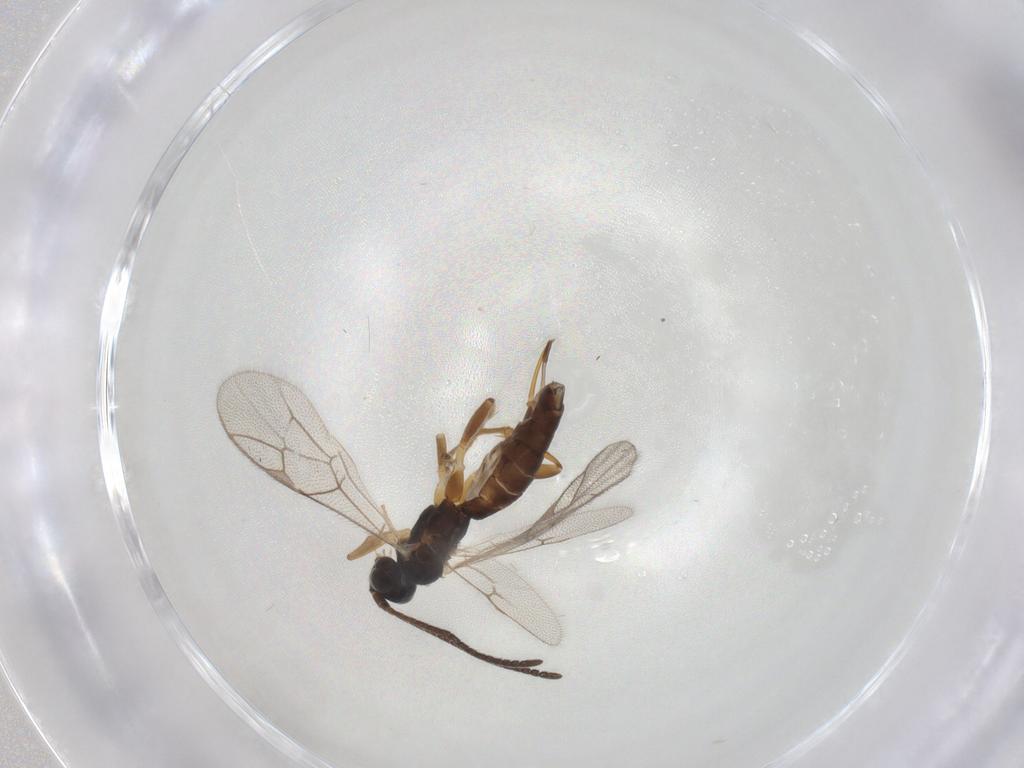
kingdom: Animalia
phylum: Arthropoda
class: Insecta
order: Hymenoptera
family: Ichneumonidae
